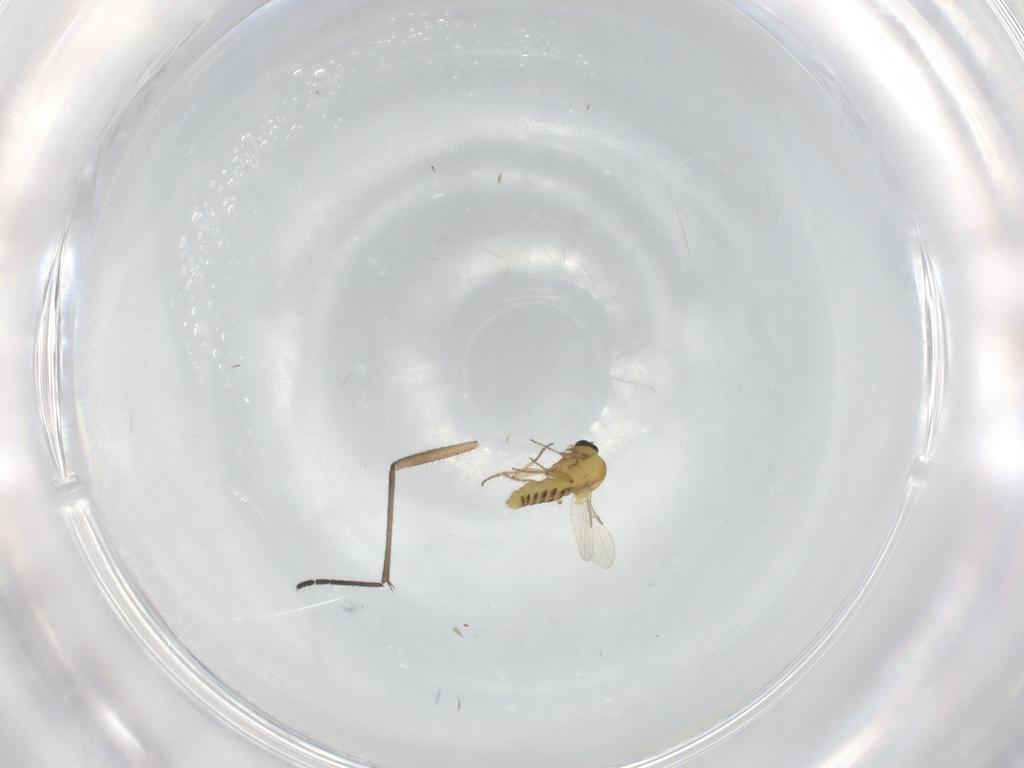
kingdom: Animalia
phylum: Arthropoda
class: Insecta
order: Diptera
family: Ceratopogonidae
